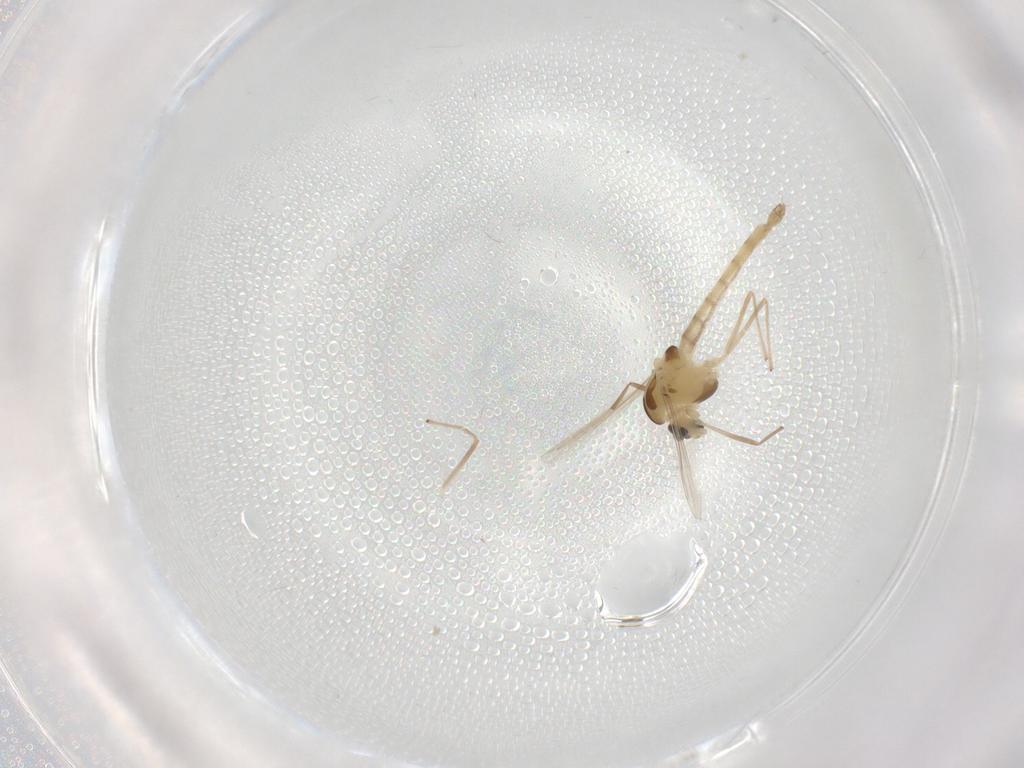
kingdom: Animalia
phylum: Arthropoda
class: Insecta
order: Diptera
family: Chironomidae
